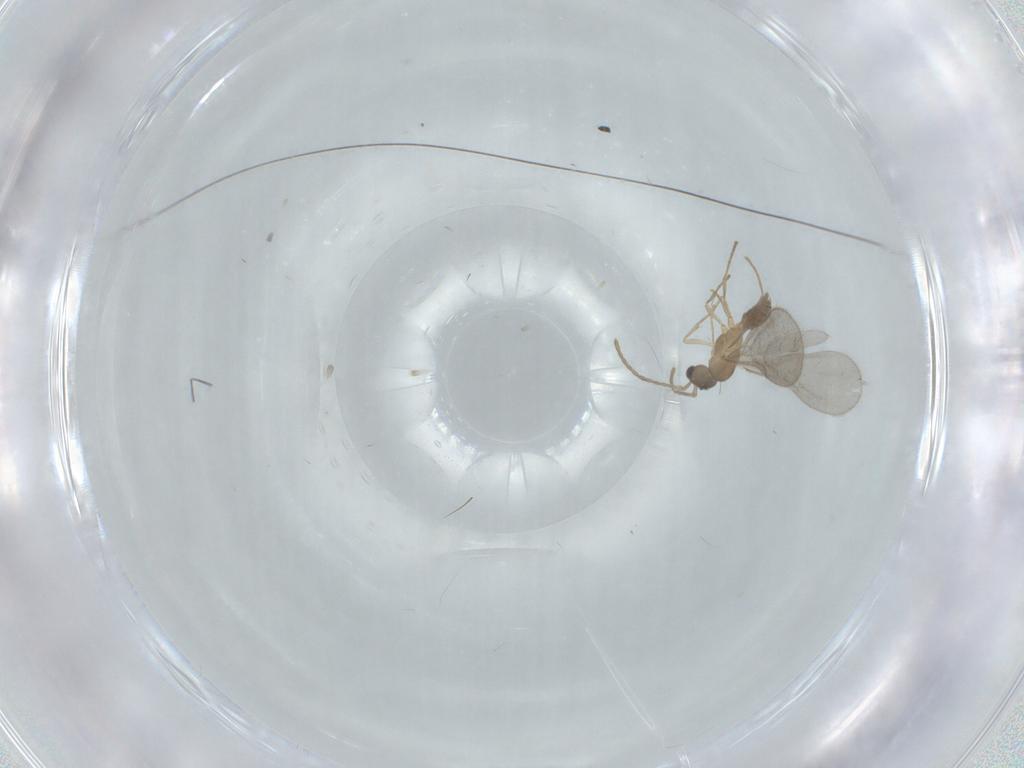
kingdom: Animalia
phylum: Arthropoda
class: Insecta
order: Hymenoptera
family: Formicidae
